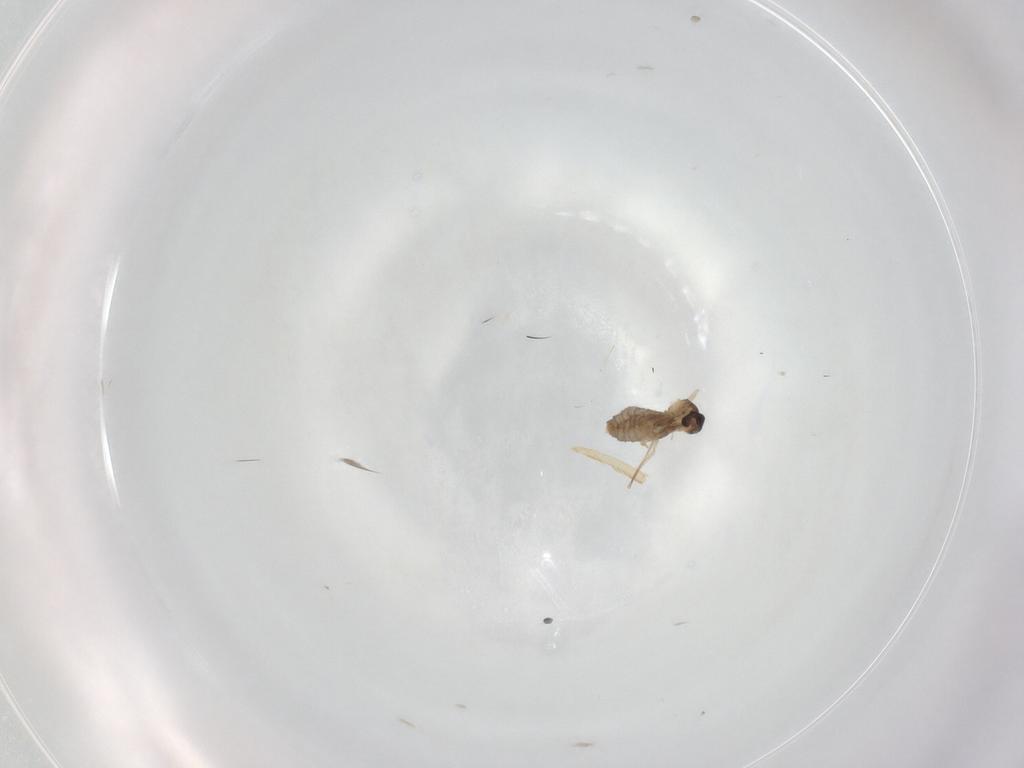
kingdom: Animalia
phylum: Arthropoda
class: Insecta
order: Diptera
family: Cecidomyiidae
